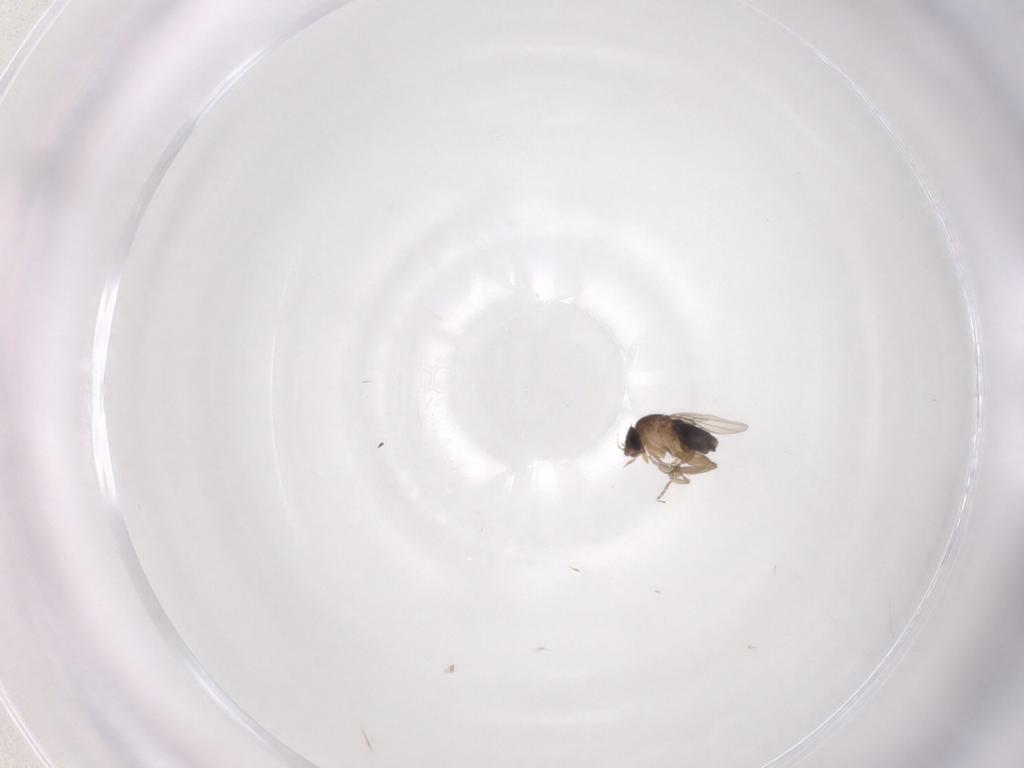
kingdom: Animalia
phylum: Arthropoda
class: Insecta
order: Diptera
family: Phoridae
